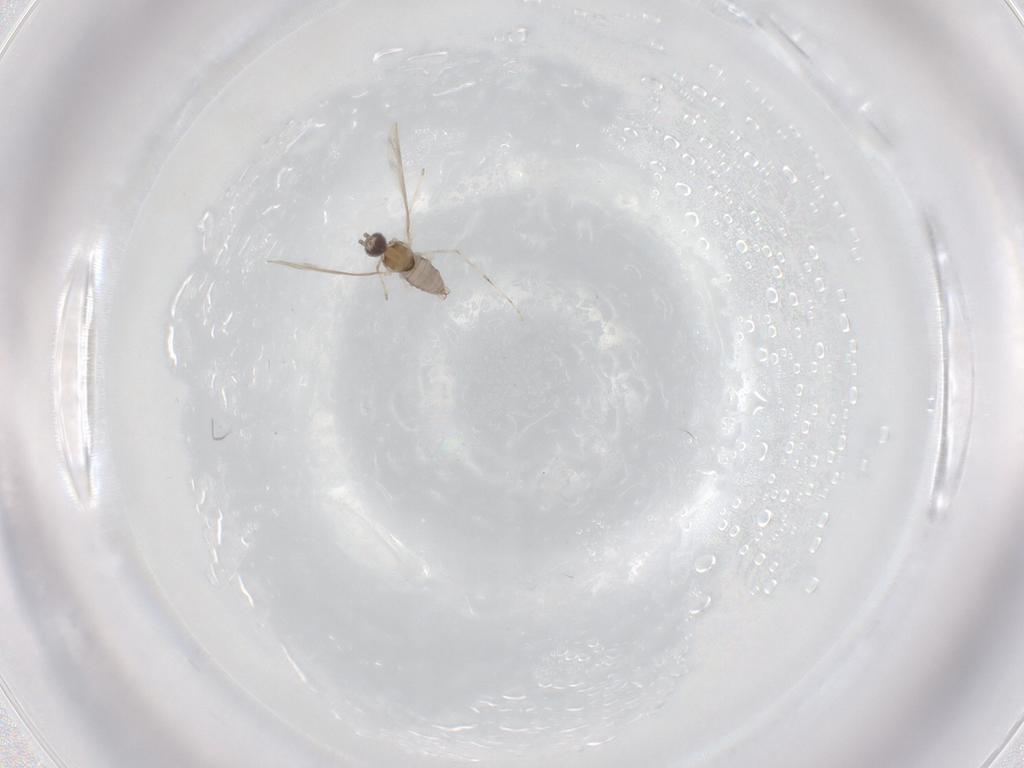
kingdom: Animalia
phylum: Arthropoda
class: Insecta
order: Diptera
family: Cecidomyiidae
